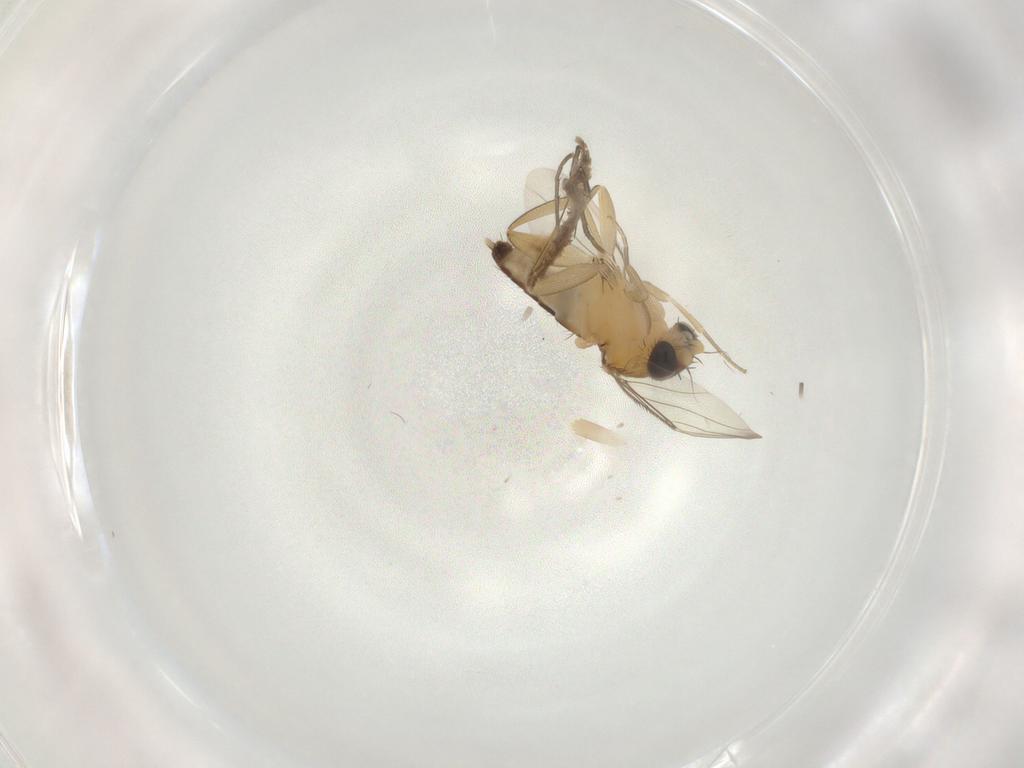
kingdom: Animalia
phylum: Arthropoda
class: Insecta
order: Diptera
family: Phoridae
